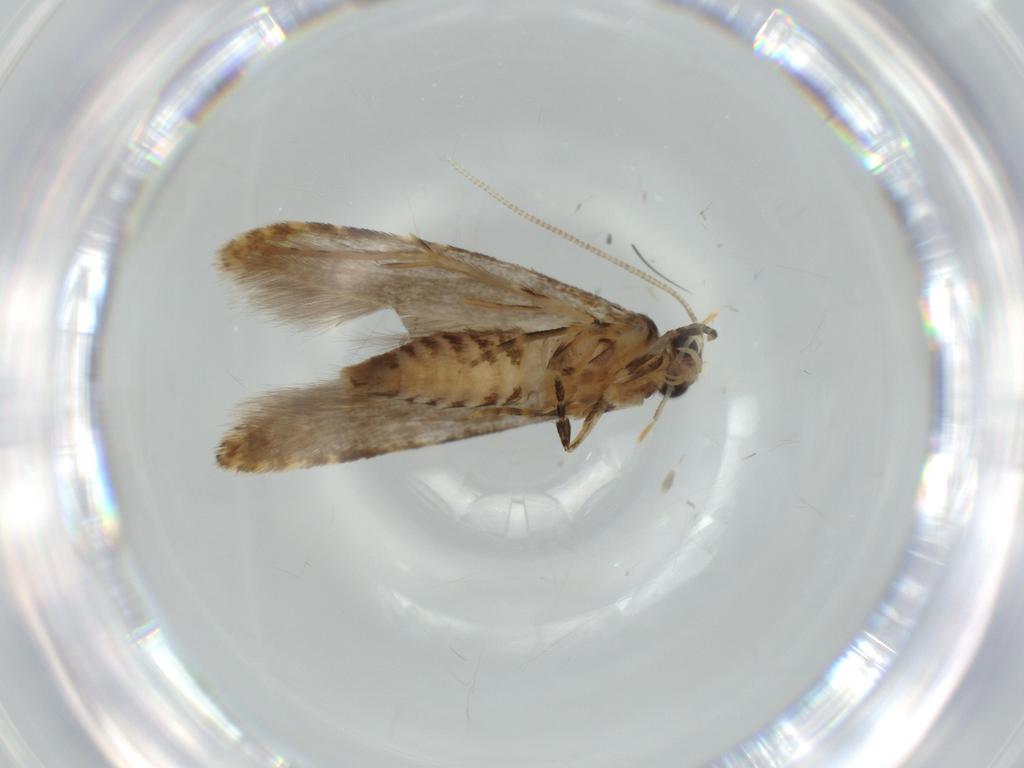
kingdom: Animalia
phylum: Arthropoda
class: Insecta
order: Lepidoptera
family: Tineidae
